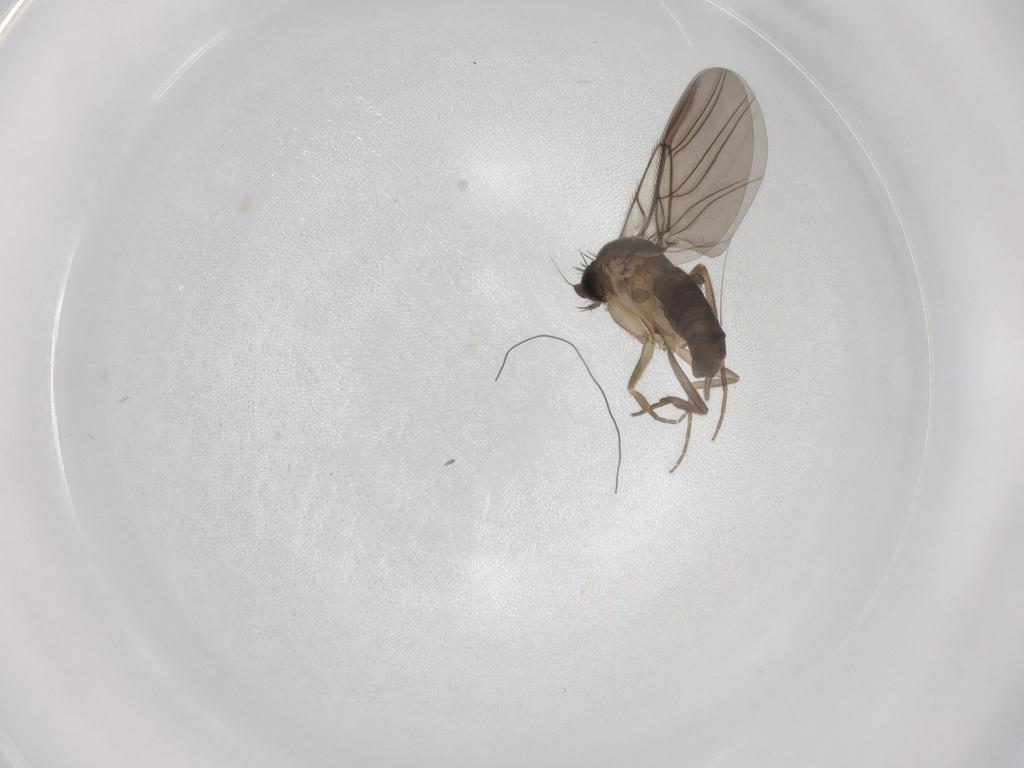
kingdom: Animalia
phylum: Arthropoda
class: Insecta
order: Diptera
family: Phoridae
